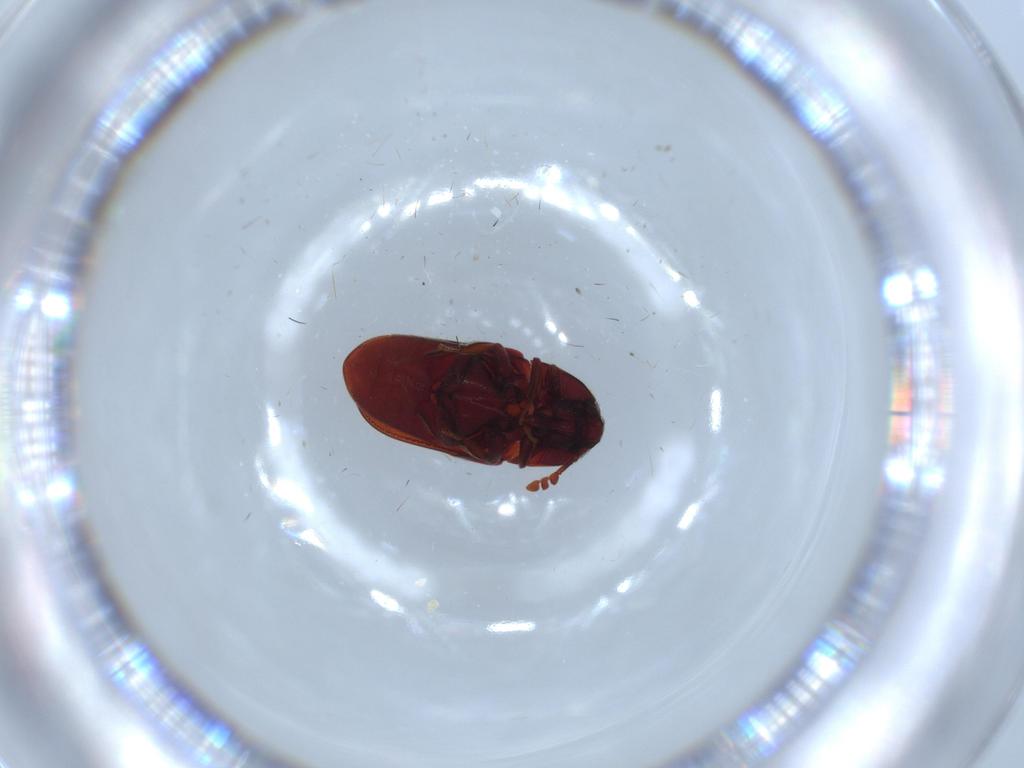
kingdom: Animalia
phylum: Arthropoda
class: Insecta
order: Coleoptera
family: Throscidae
